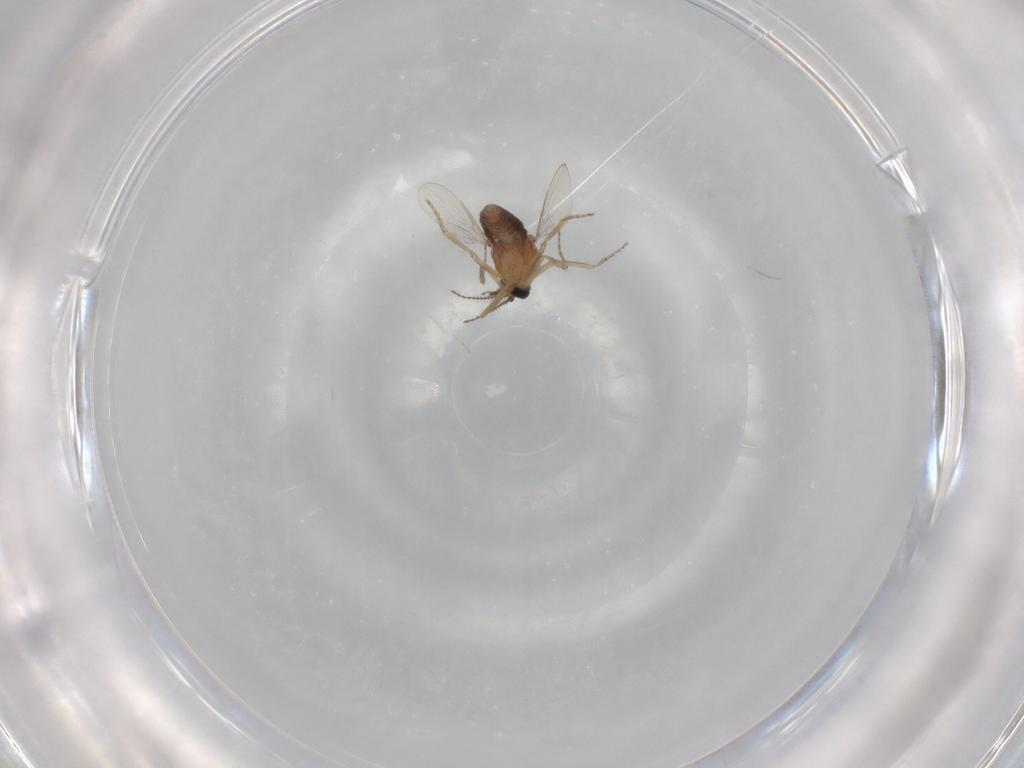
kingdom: Animalia
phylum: Arthropoda
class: Insecta
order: Diptera
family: Ceratopogonidae
